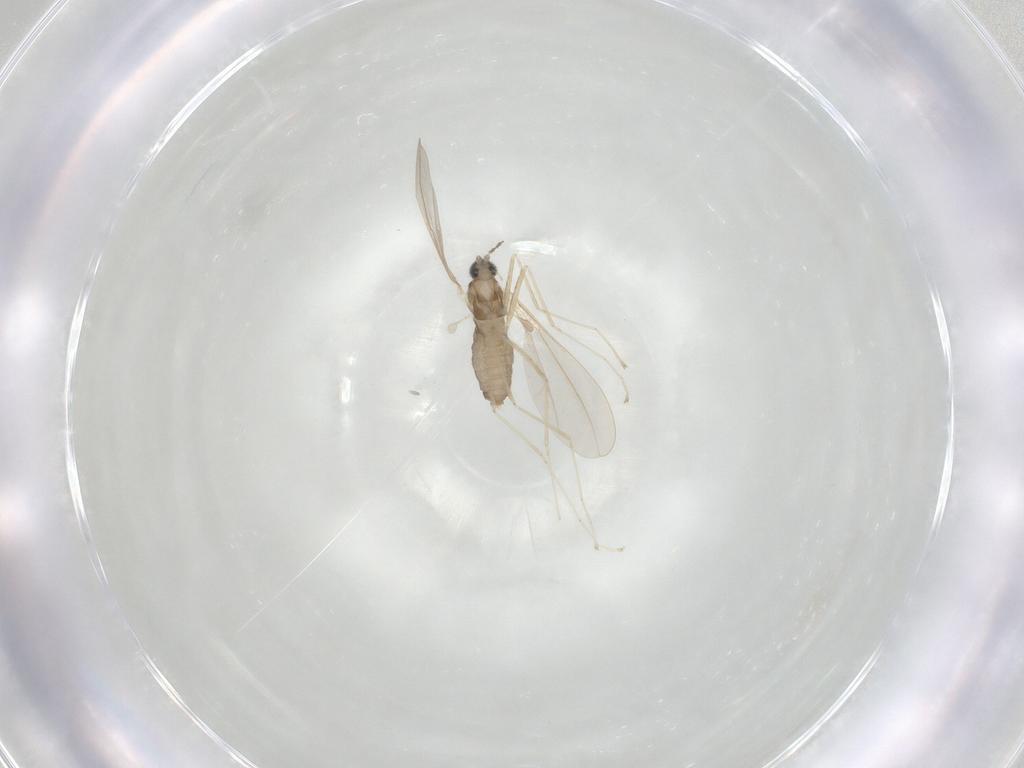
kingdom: Animalia
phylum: Arthropoda
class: Insecta
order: Diptera
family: Cecidomyiidae
